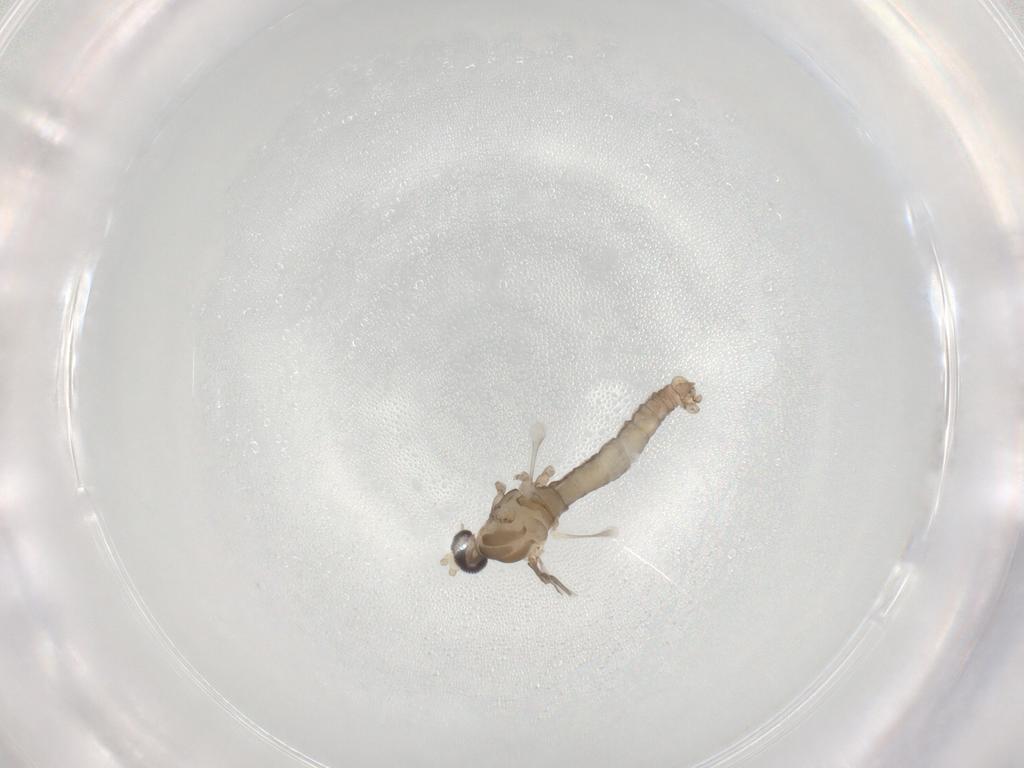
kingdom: Animalia
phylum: Arthropoda
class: Insecta
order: Diptera
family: Cecidomyiidae
